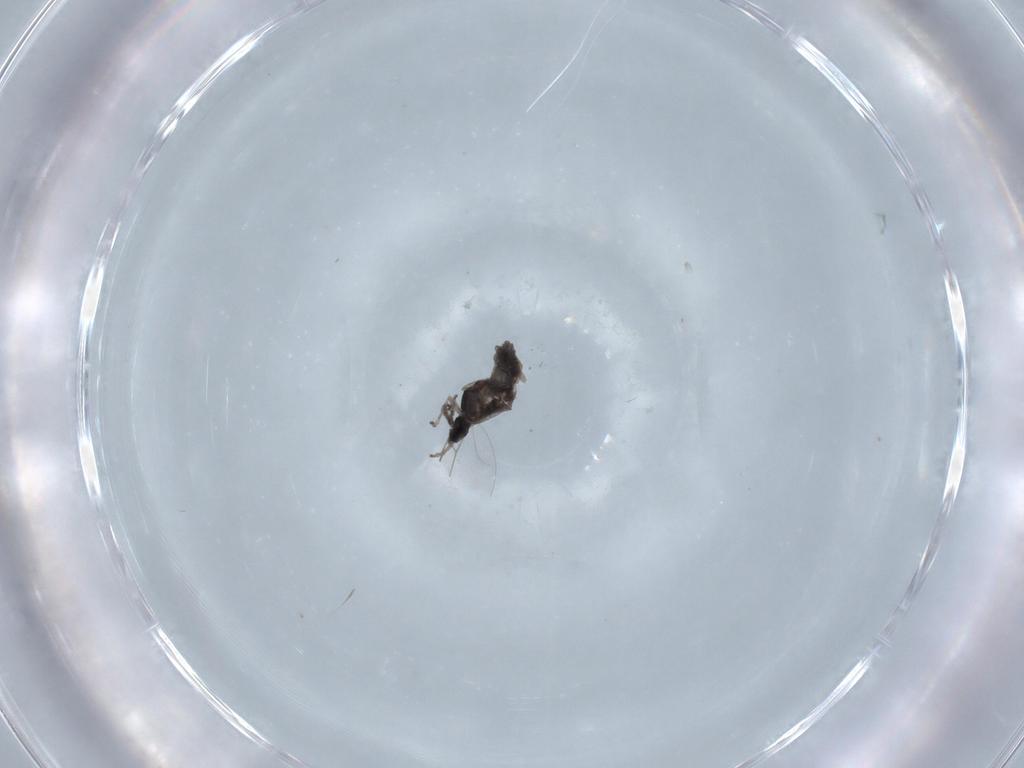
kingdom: Animalia
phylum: Arthropoda
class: Insecta
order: Diptera
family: Cecidomyiidae
